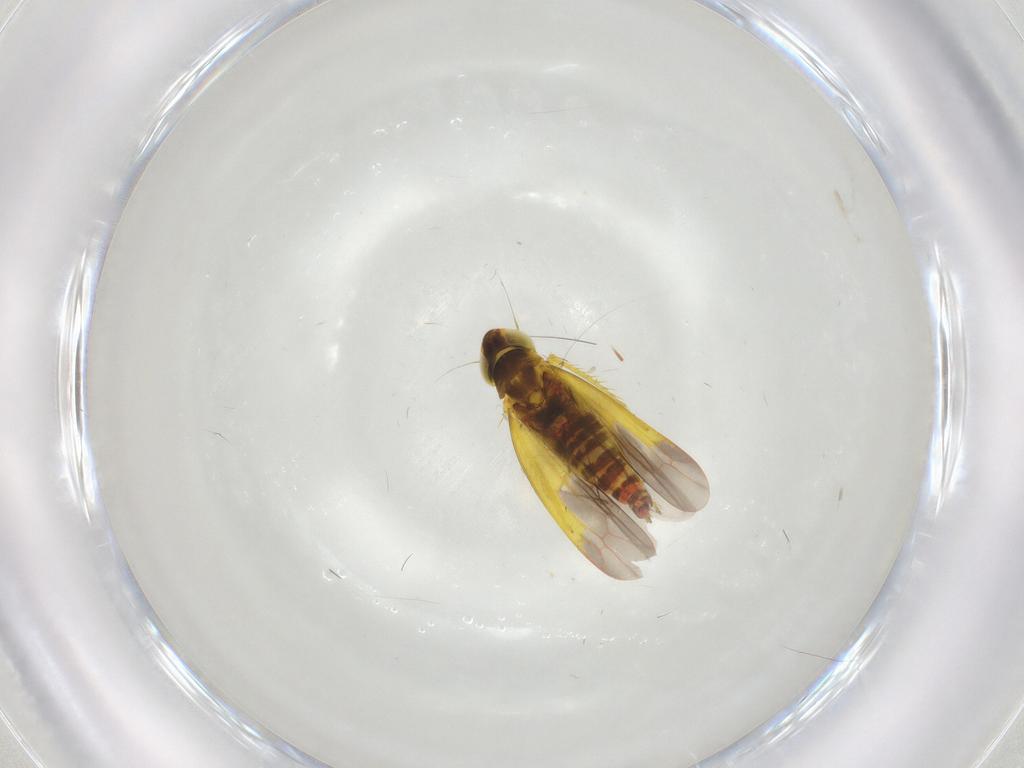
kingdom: Animalia
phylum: Arthropoda
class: Insecta
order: Hemiptera
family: Cicadellidae
